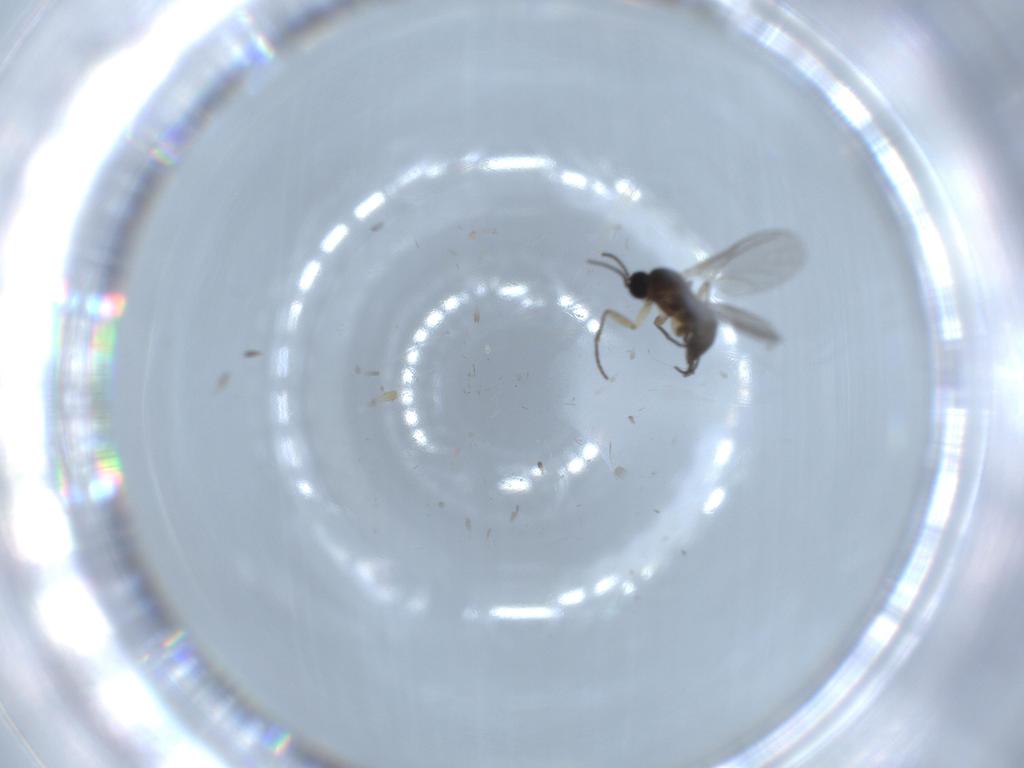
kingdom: Animalia
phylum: Arthropoda
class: Insecta
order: Diptera
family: Sciaridae
